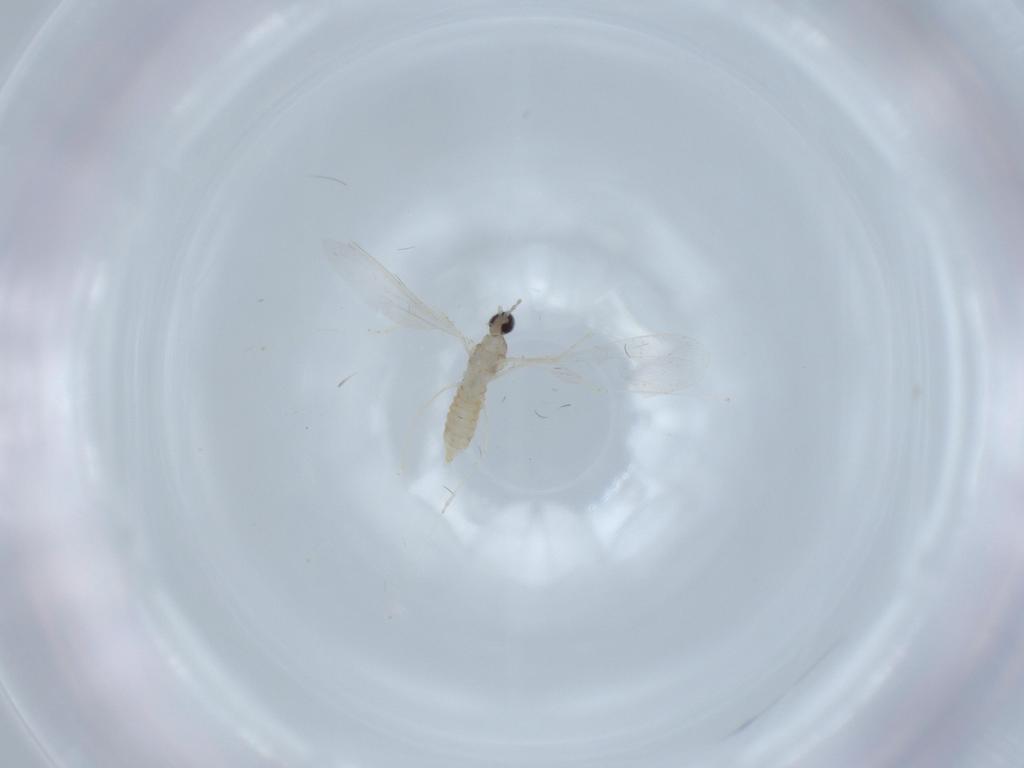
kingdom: Animalia
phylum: Arthropoda
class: Insecta
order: Diptera
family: Cecidomyiidae
